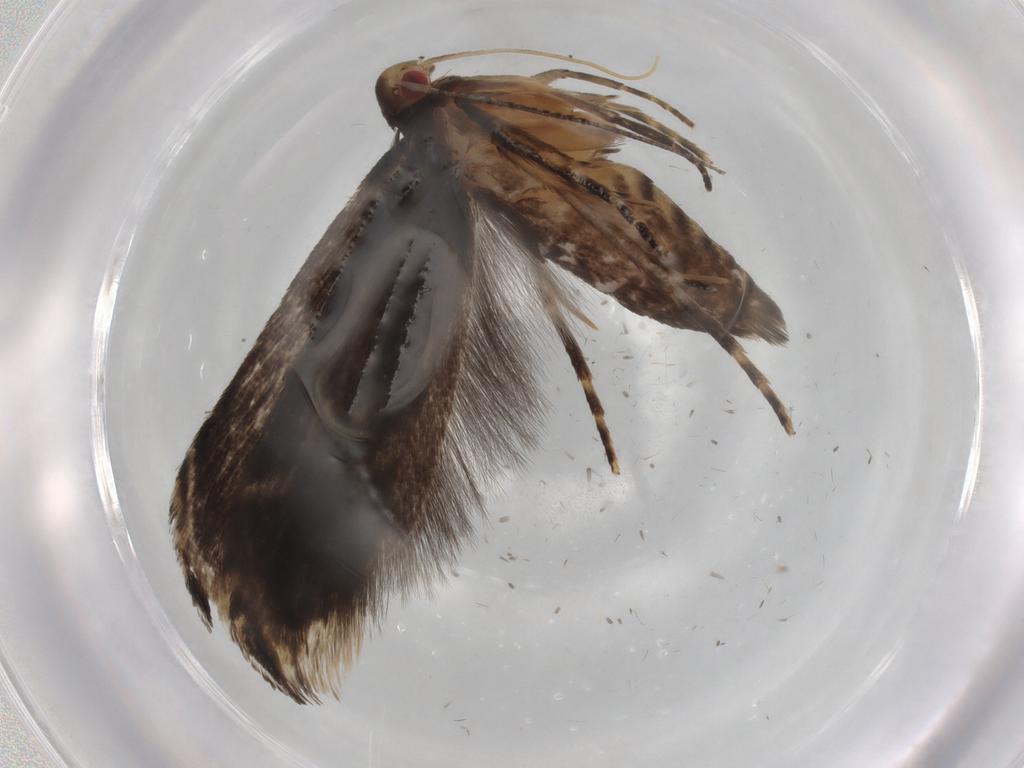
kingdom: Animalia
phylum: Arthropoda
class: Insecta
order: Lepidoptera
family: Gelechiidae
